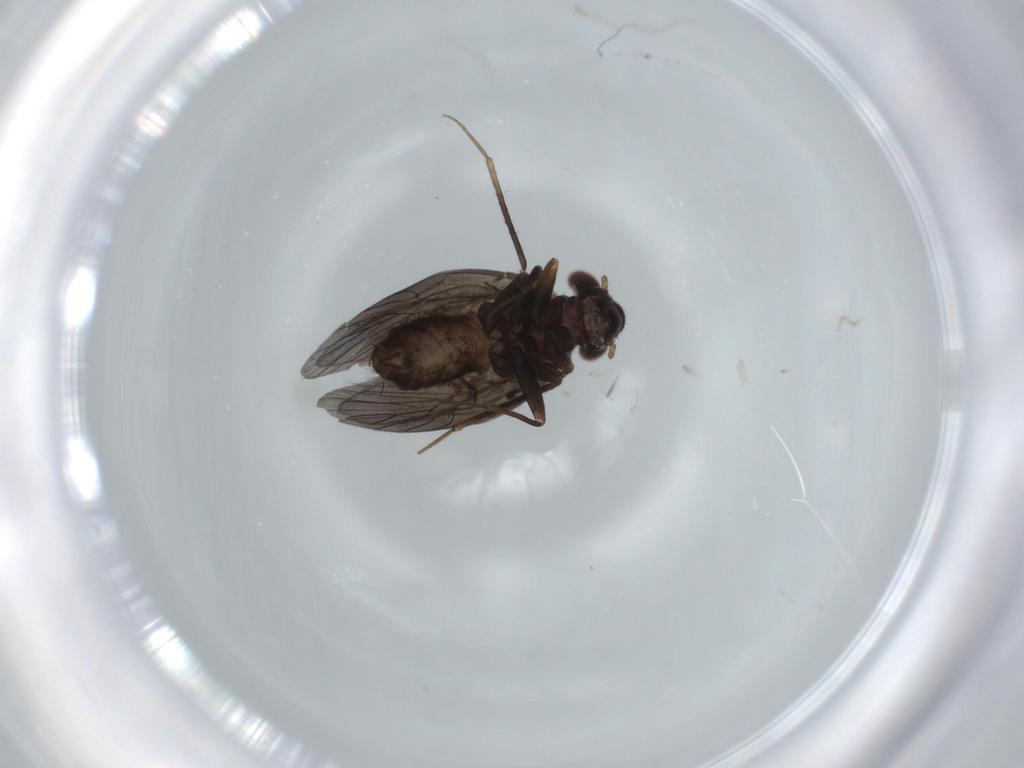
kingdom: Animalia
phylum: Arthropoda
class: Insecta
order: Psocodea
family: Lepidopsocidae
